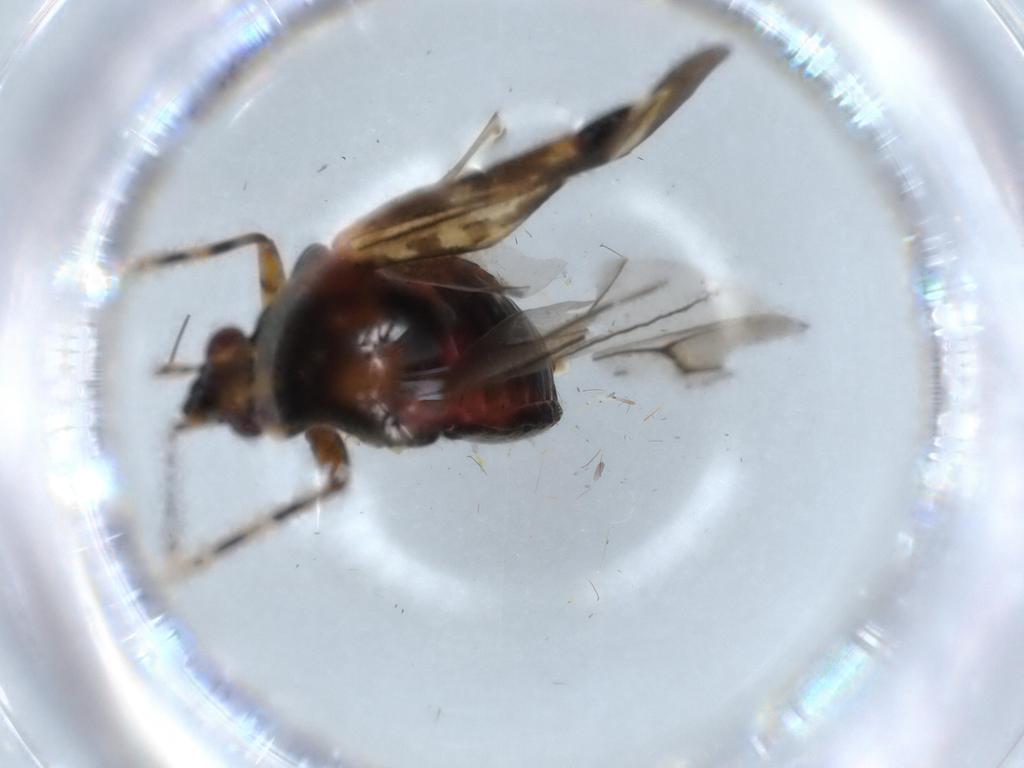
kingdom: Animalia
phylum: Arthropoda
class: Insecta
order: Hemiptera
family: Miridae
